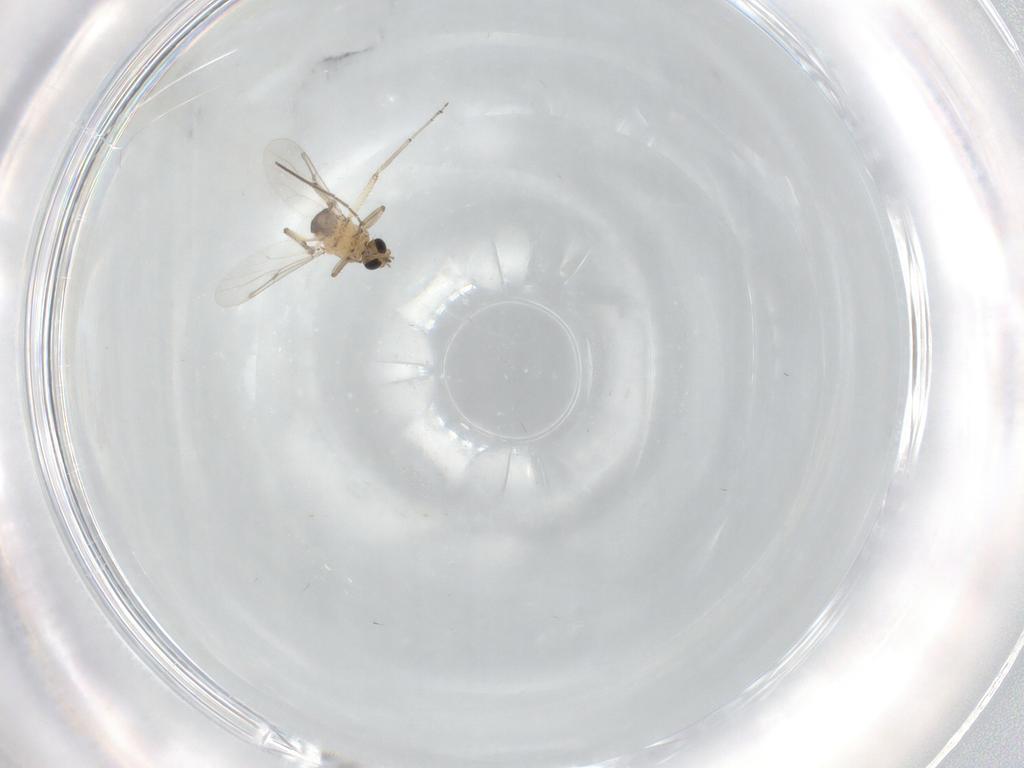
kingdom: Animalia
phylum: Arthropoda
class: Insecta
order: Diptera
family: Ceratopogonidae
